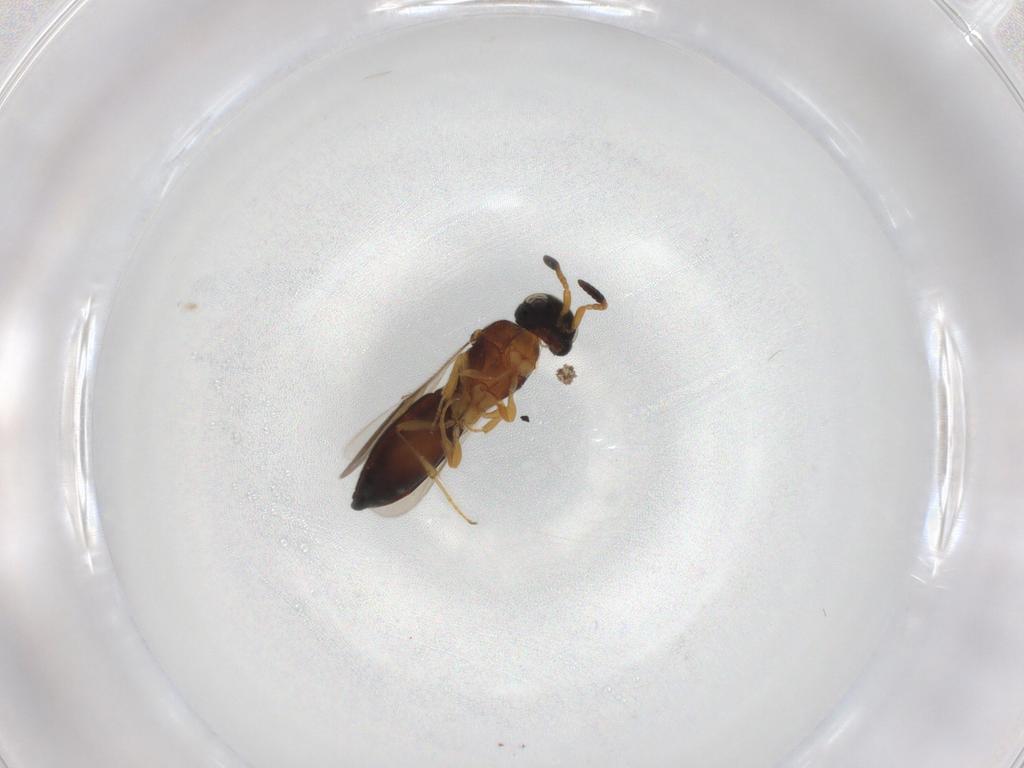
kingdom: Animalia
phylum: Arthropoda
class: Insecta
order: Hymenoptera
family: Scelionidae
